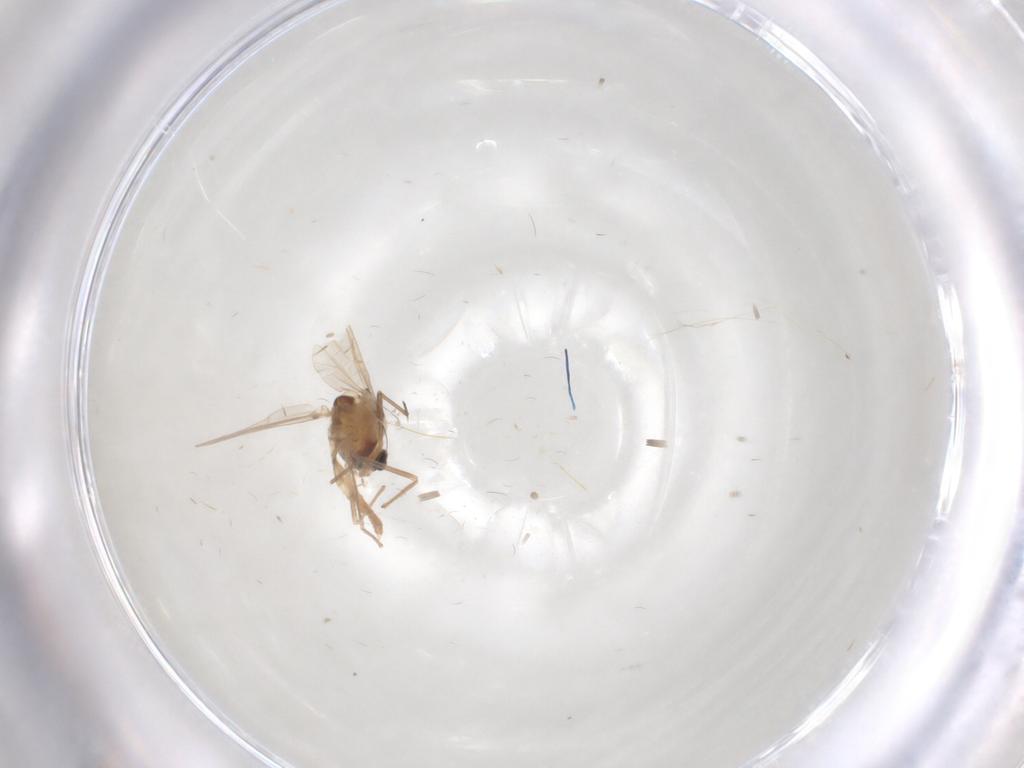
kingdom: Animalia
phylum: Arthropoda
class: Insecta
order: Diptera
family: Chironomidae
